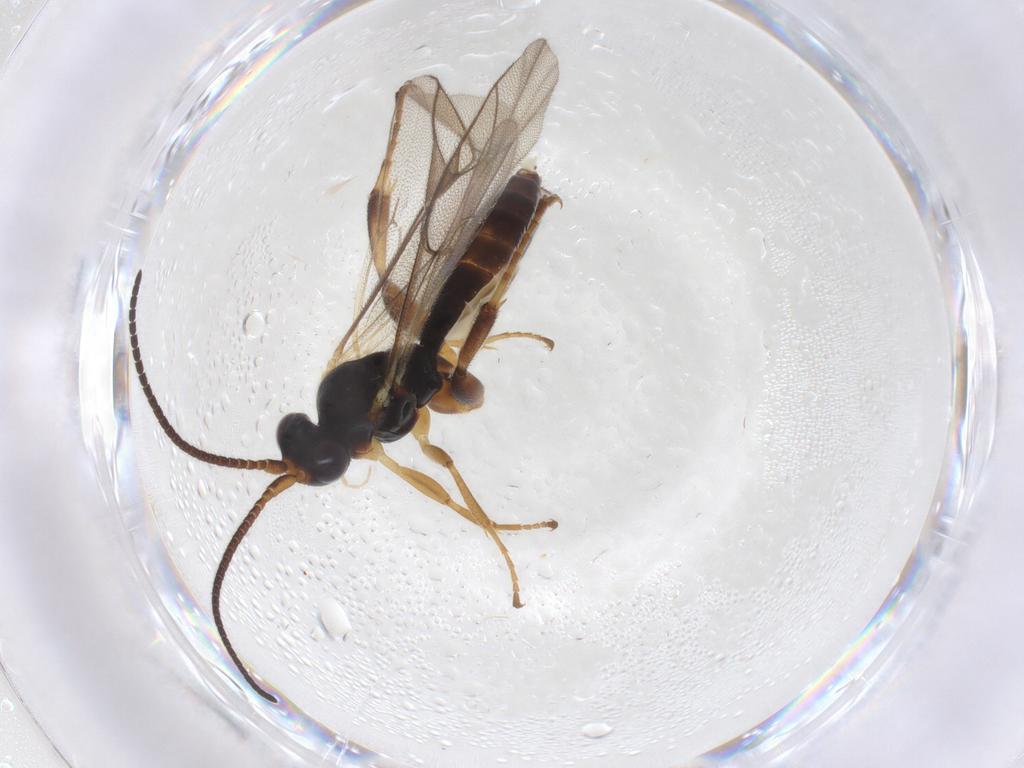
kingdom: Animalia
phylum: Arthropoda
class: Insecta
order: Hymenoptera
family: Ichneumonidae
